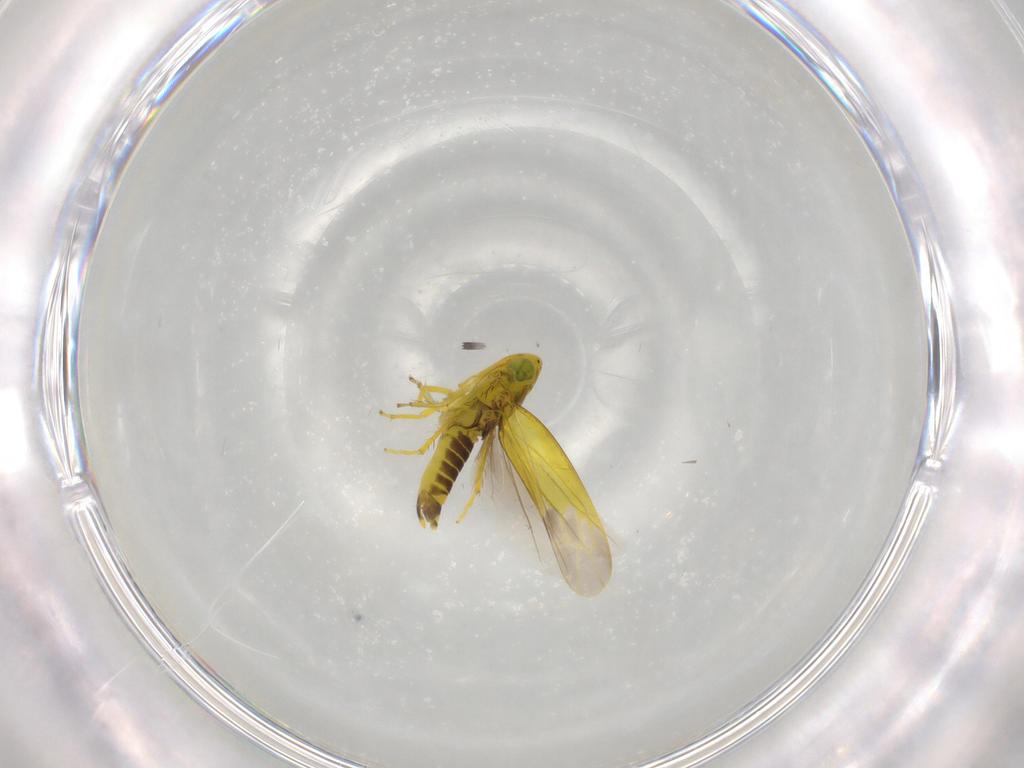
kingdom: Animalia
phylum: Arthropoda
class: Insecta
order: Hemiptera
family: Cicadellidae
